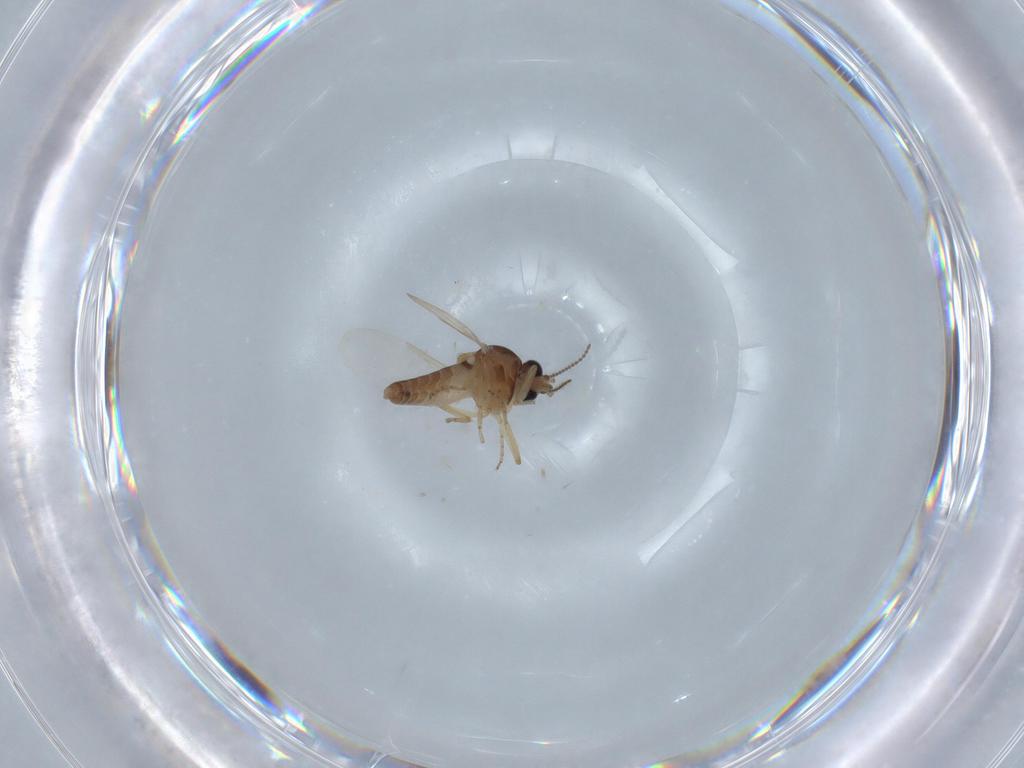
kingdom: Animalia
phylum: Arthropoda
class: Insecta
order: Diptera
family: Ceratopogonidae
